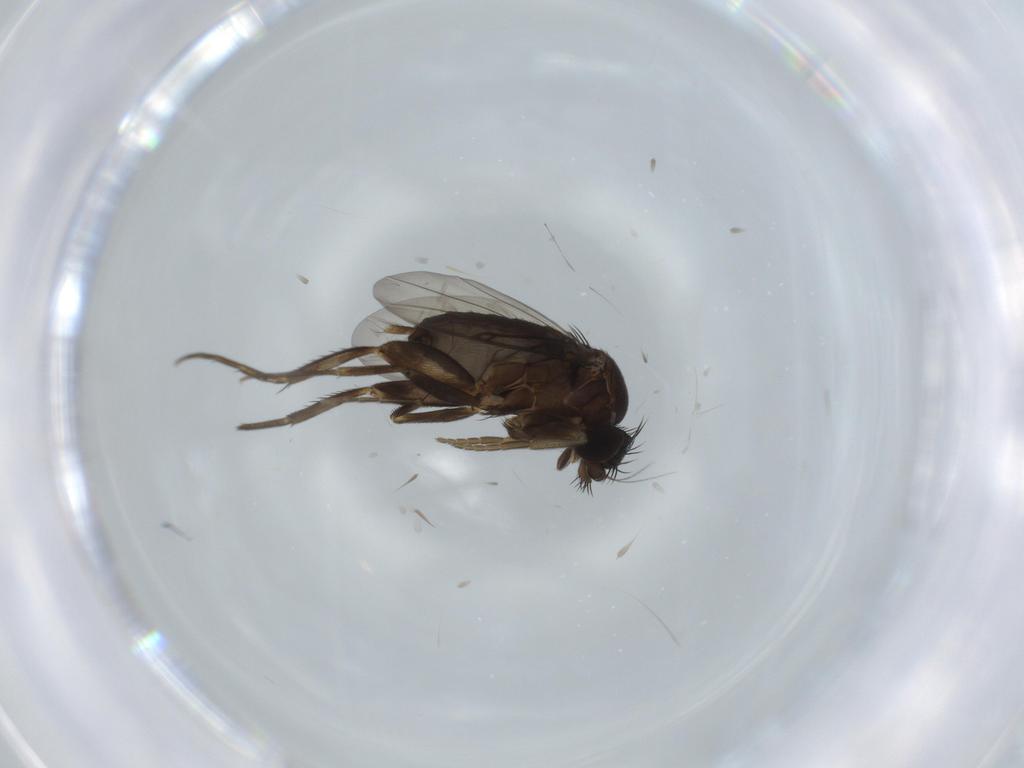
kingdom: Animalia
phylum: Arthropoda
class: Insecta
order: Diptera
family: Phoridae
